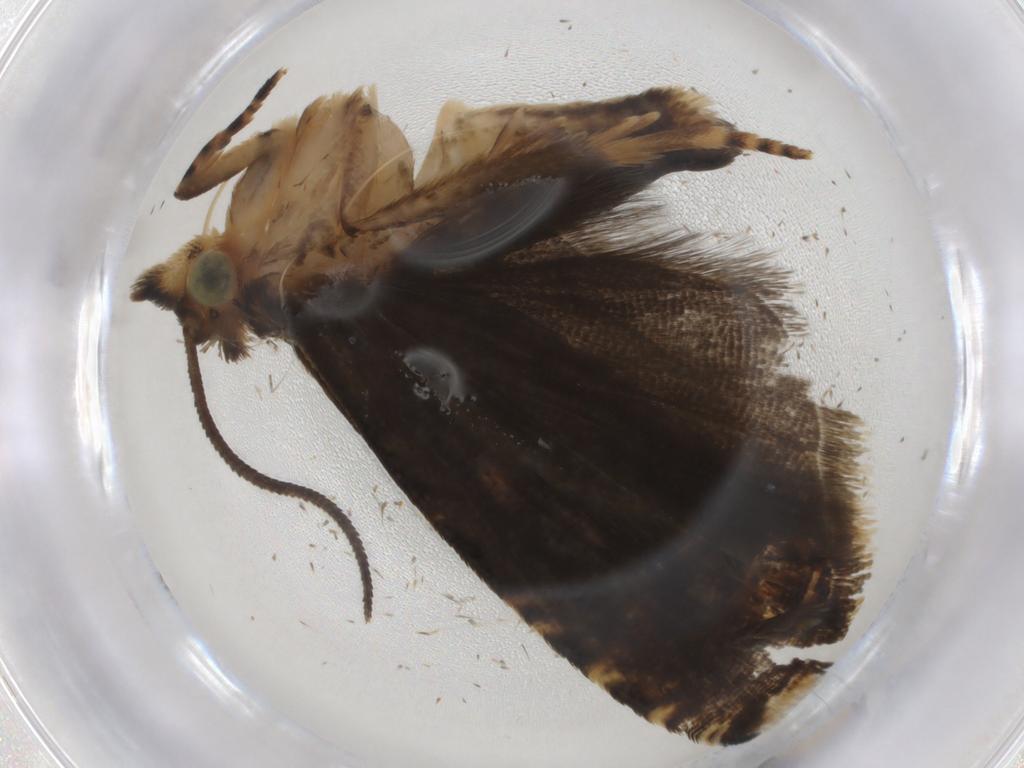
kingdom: Animalia
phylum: Arthropoda
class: Insecta
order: Lepidoptera
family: Tortricidae
